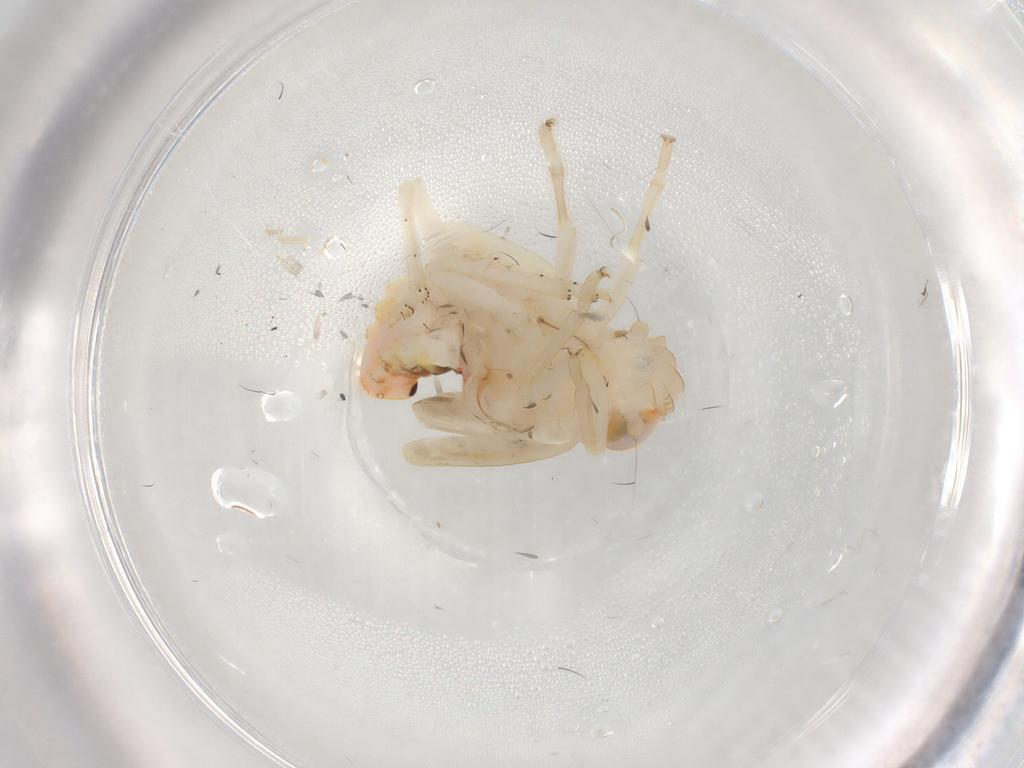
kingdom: Animalia
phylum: Arthropoda
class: Insecta
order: Hemiptera
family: Nogodinidae
